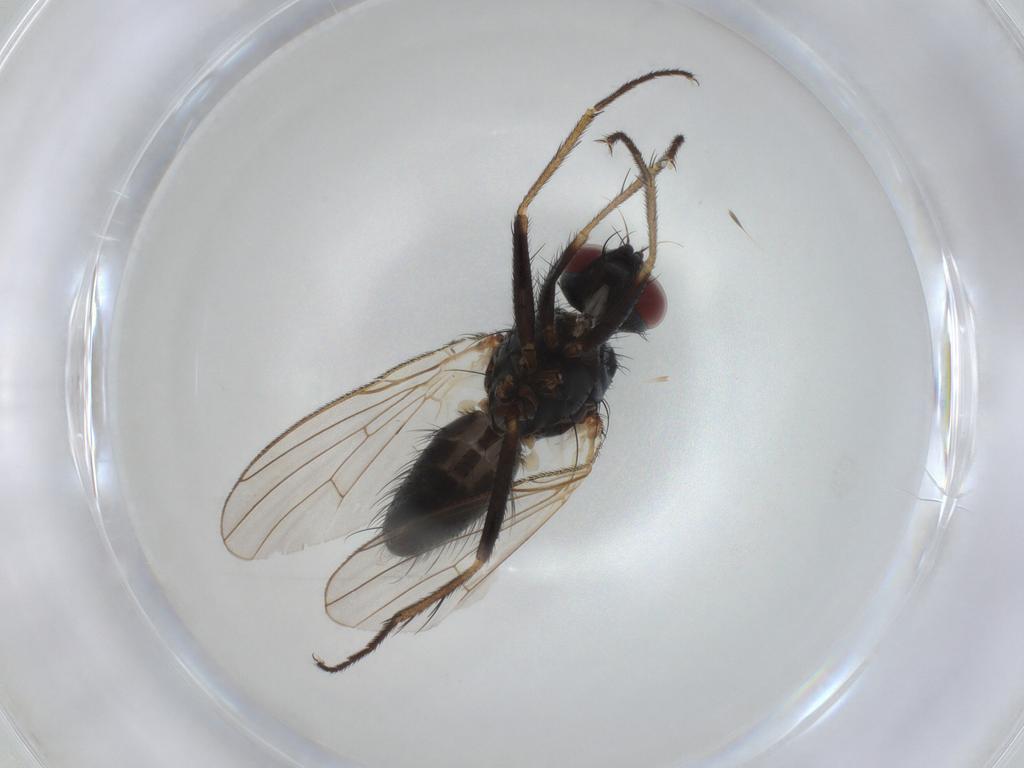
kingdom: Animalia
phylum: Arthropoda
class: Insecta
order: Diptera
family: Muscidae
